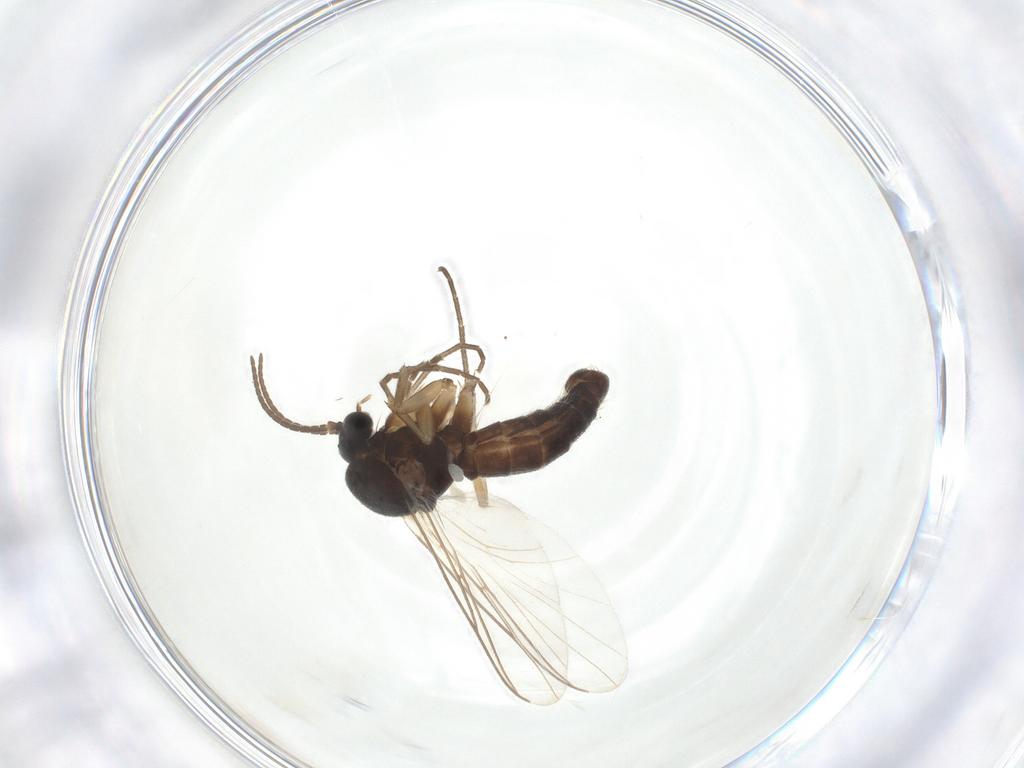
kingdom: Animalia
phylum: Arthropoda
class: Insecta
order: Diptera
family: Mycetophilidae
